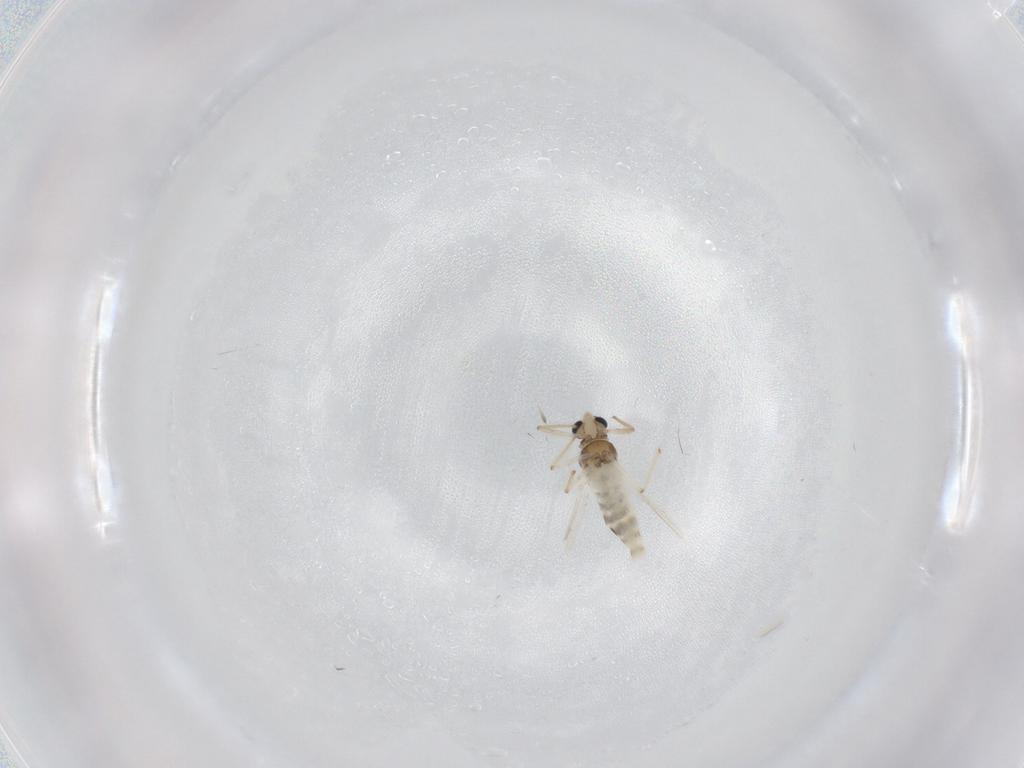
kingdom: Animalia
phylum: Arthropoda
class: Insecta
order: Diptera
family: Chironomidae
